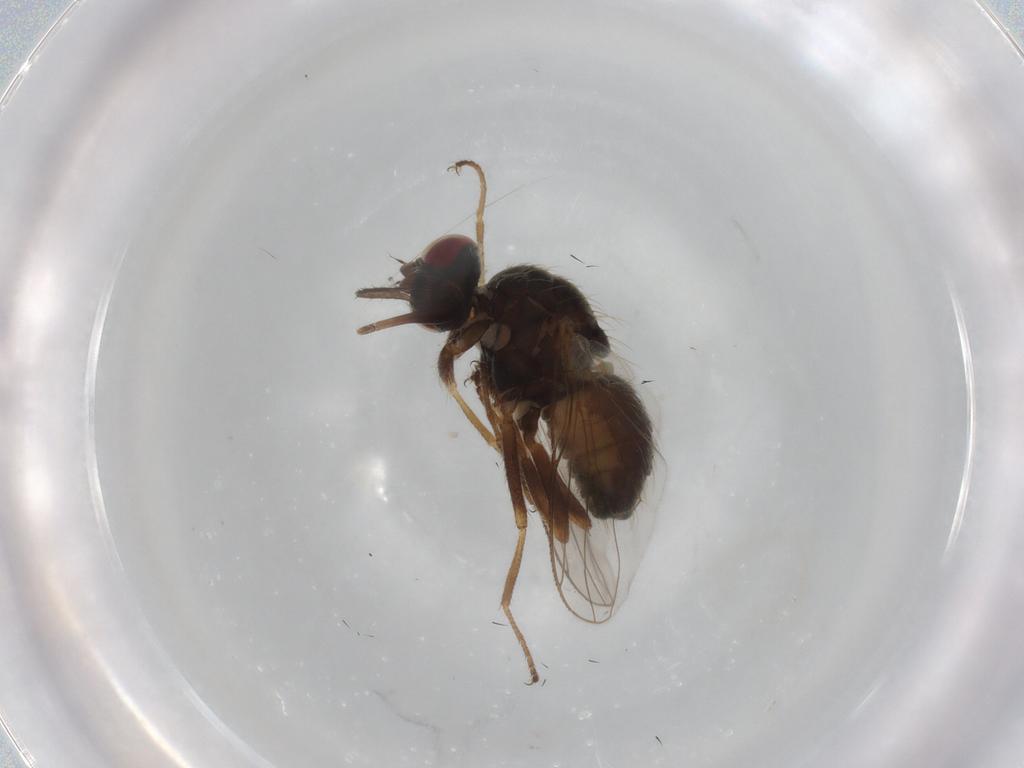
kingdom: Animalia
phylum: Arthropoda
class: Insecta
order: Diptera
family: Muscidae
